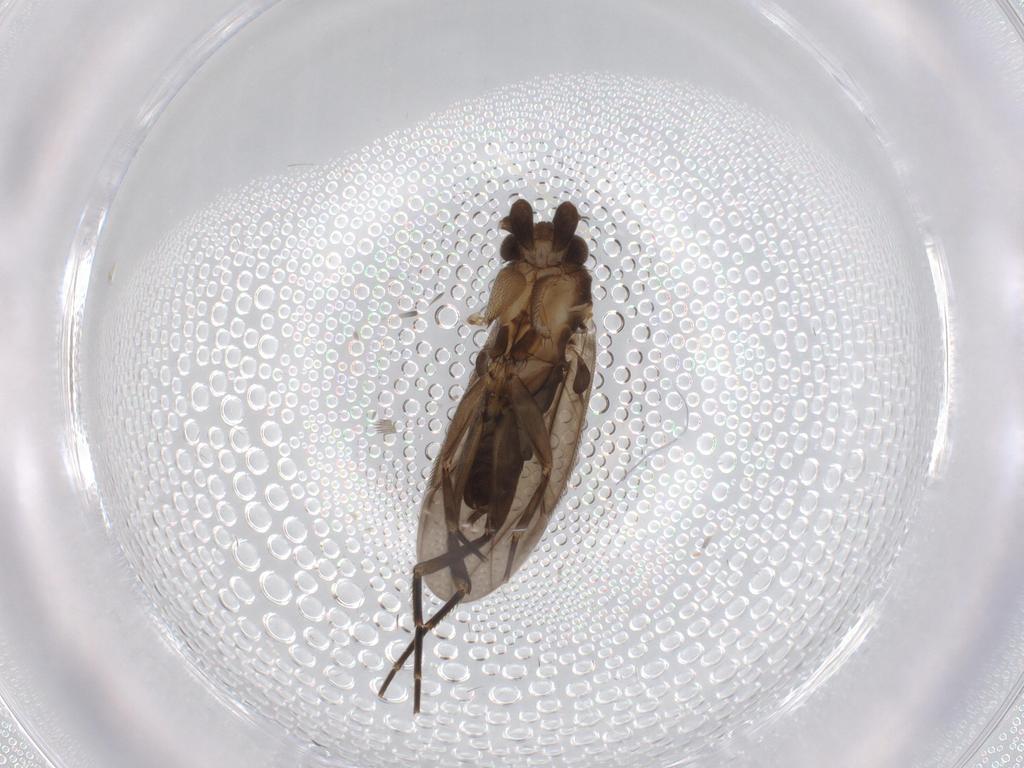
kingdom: Animalia
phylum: Arthropoda
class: Insecta
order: Diptera
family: Phoridae
